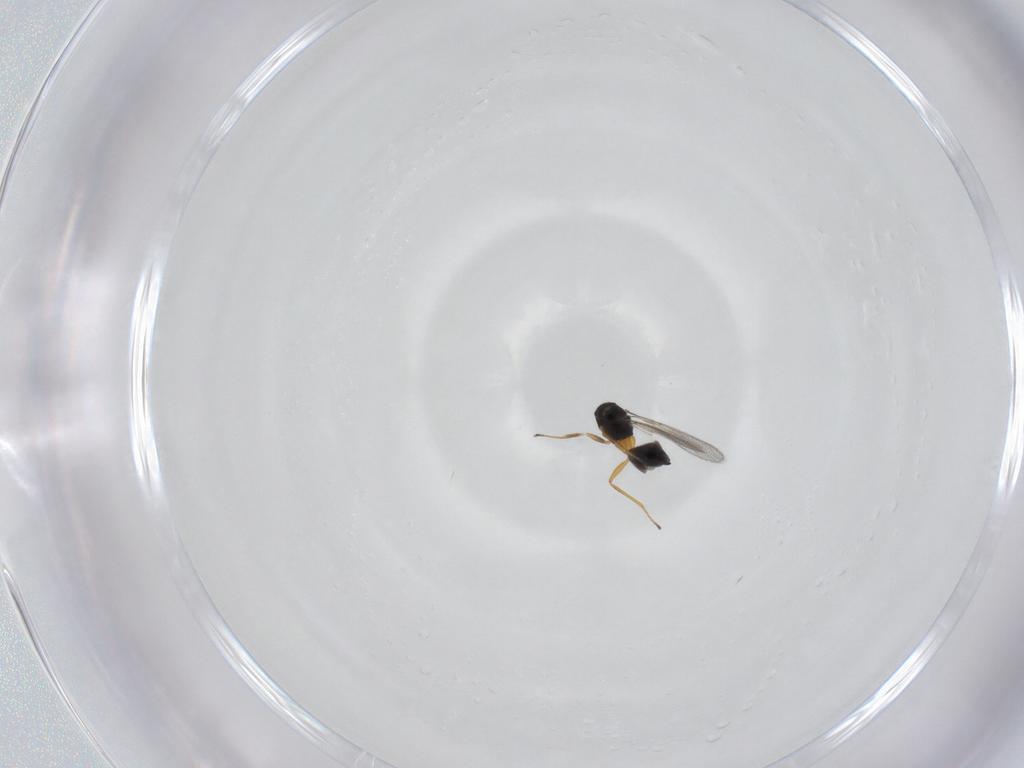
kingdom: Animalia
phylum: Arthropoda
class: Insecta
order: Hymenoptera
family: Mymaridae
